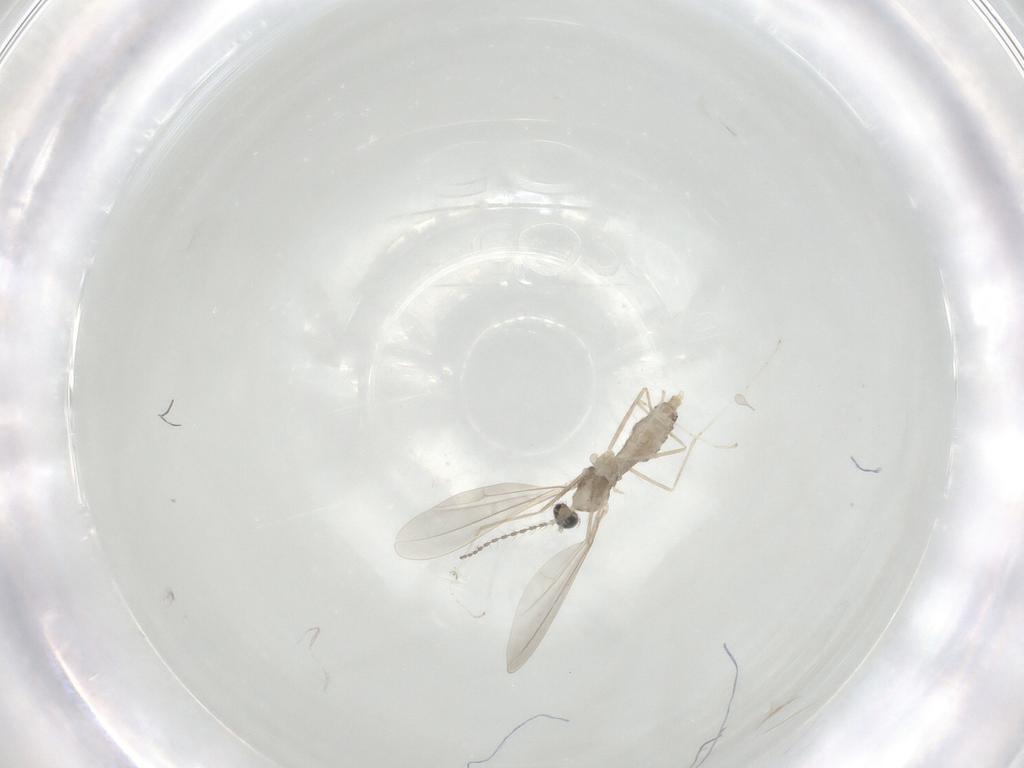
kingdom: Animalia
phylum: Arthropoda
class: Insecta
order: Diptera
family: Cecidomyiidae
